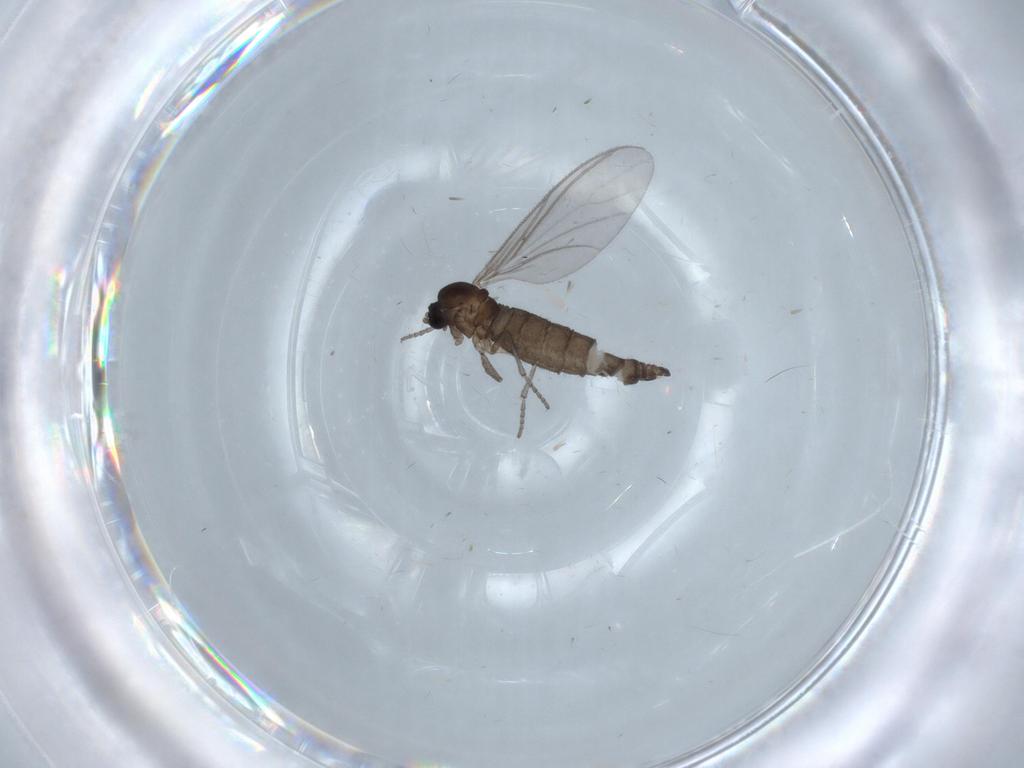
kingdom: Animalia
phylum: Arthropoda
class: Insecta
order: Diptera
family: Sciaridae
